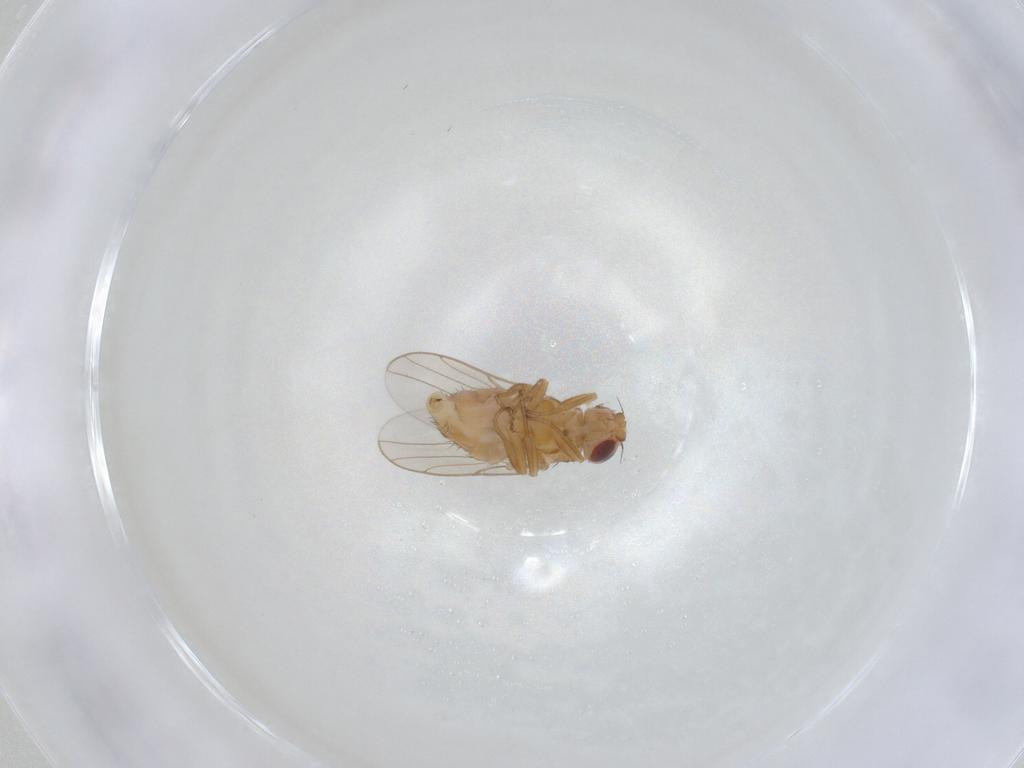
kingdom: Animalia
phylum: Arthropoda
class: Insecta
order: Diptera
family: Chloropidae
